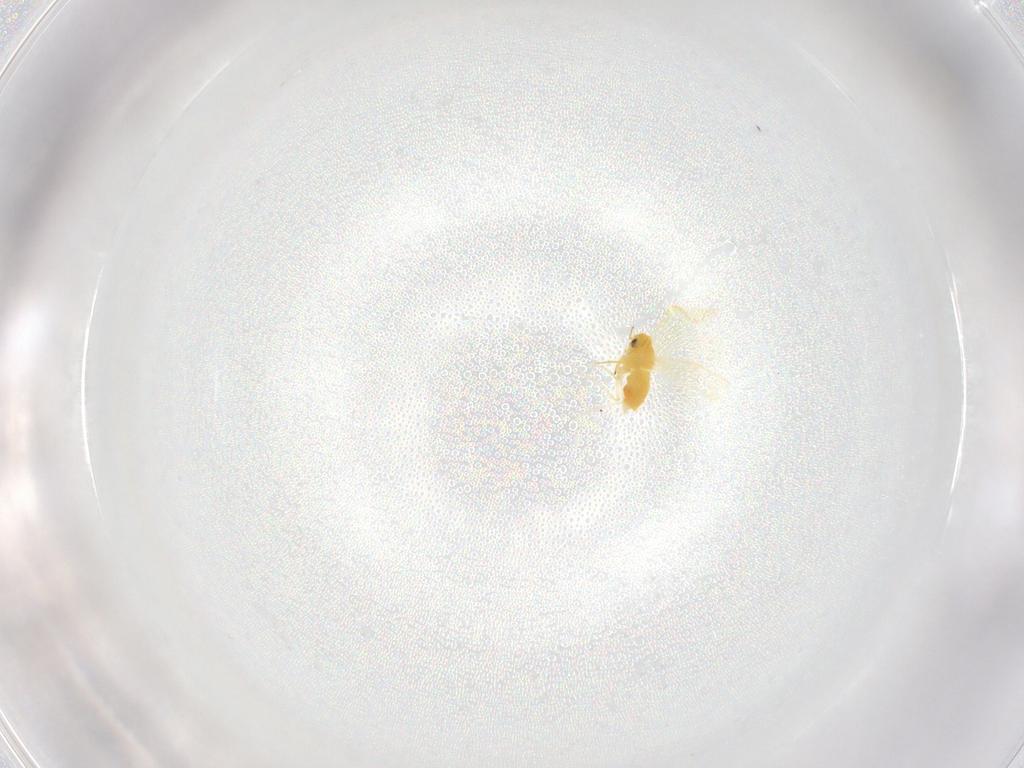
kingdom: Animalia
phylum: Arthropoda
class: Insecta
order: Hemiptera
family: Aleyrodidae
